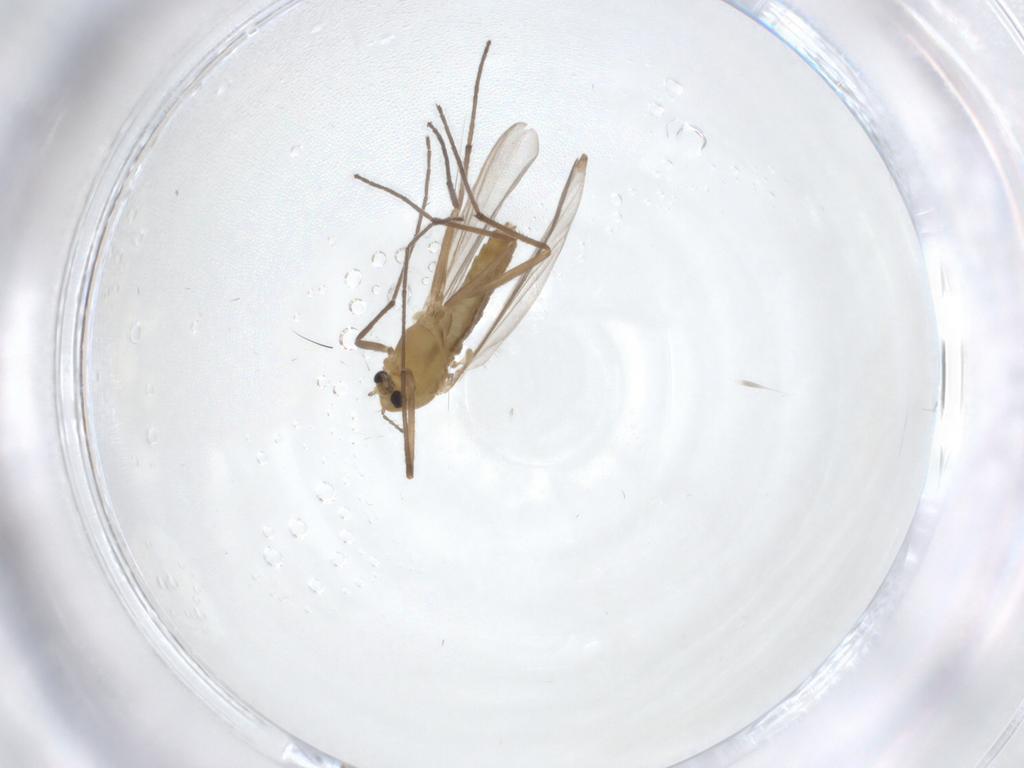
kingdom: Animalia
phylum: Arthropoda
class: Insecta
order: Diptera
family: Chironomidae
